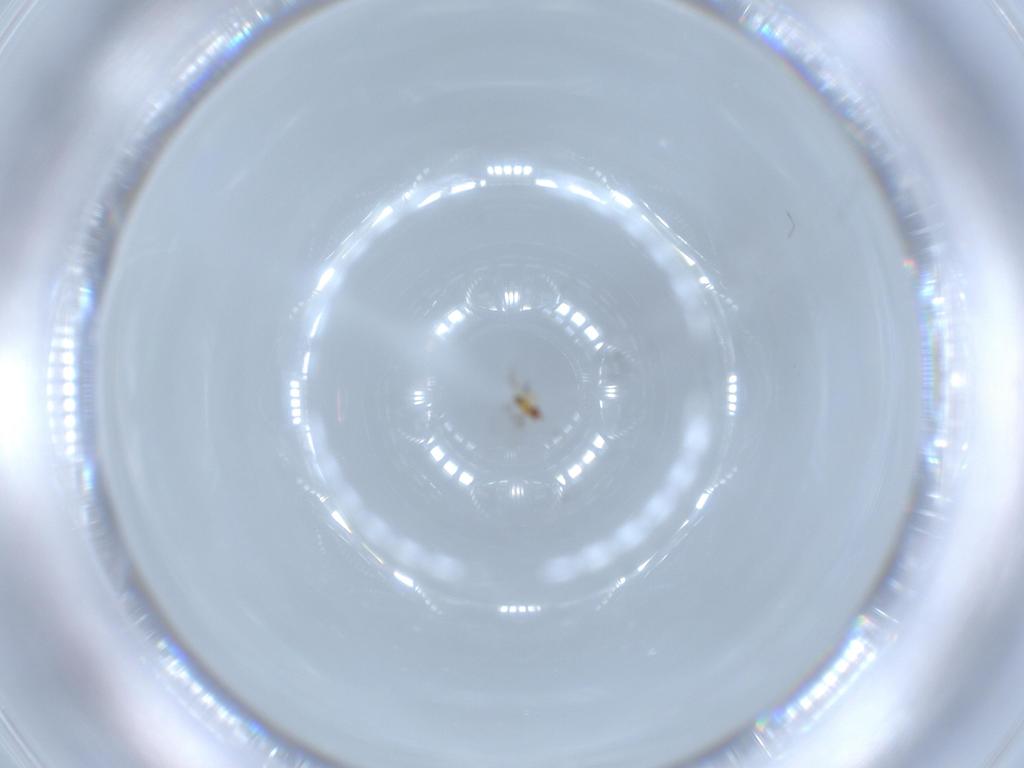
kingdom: Animalia
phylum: Arthropoda
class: Insecta
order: Hymenoptera
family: Trichogrammatidae
